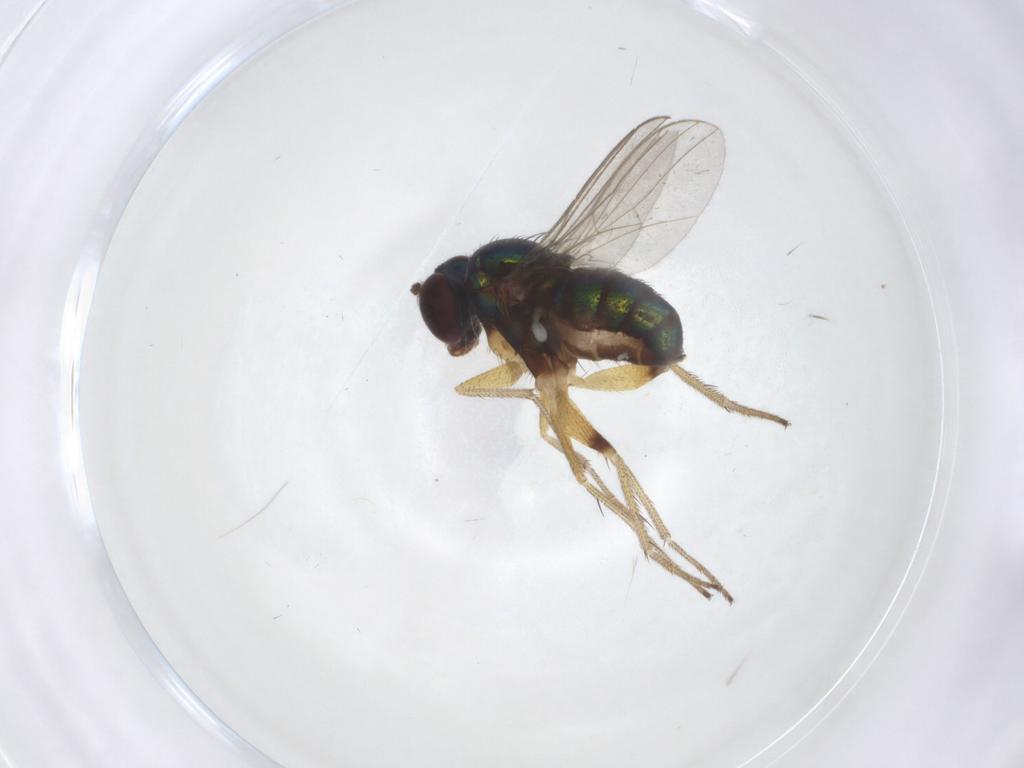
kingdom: Animalia
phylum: Arthropoda
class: Insecta
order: Diptera
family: Dolichopodidae
